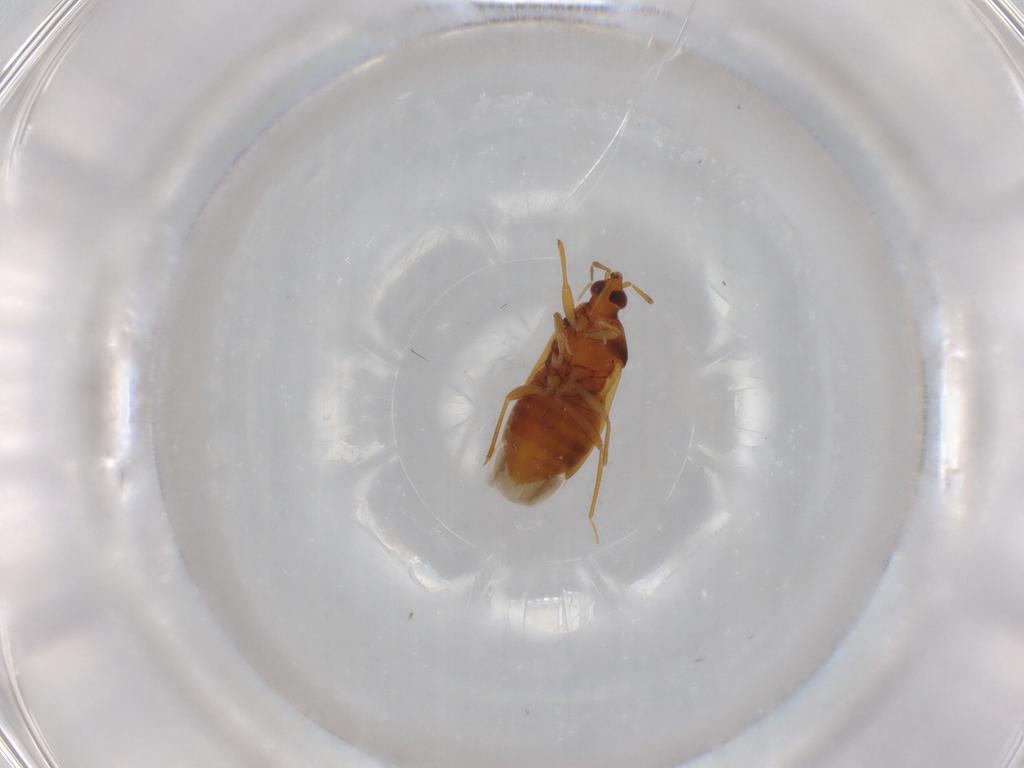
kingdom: Animalia
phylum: Arthropoda
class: Insecta
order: Hemiptera
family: Anthocoridae
